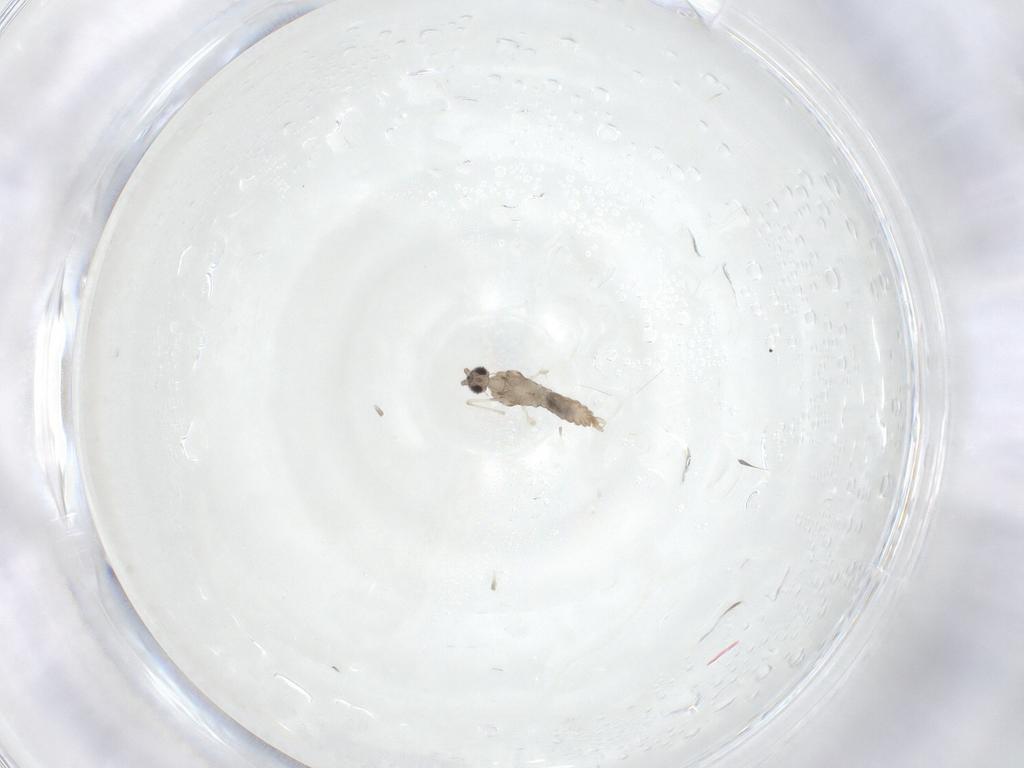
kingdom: Animalia
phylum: Arthropoda
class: Insecta
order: Diptera
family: Cecidomyiidae
